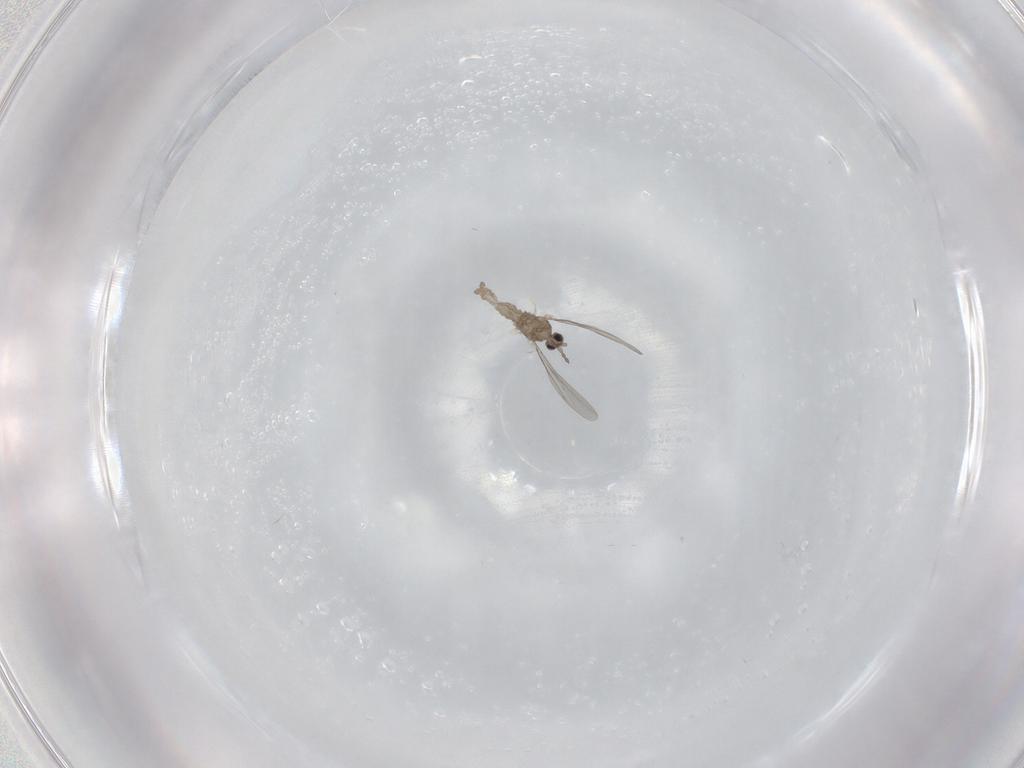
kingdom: Animalia
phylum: Arthropoda
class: Insecta
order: Diptera
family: Cecidomyiidae
